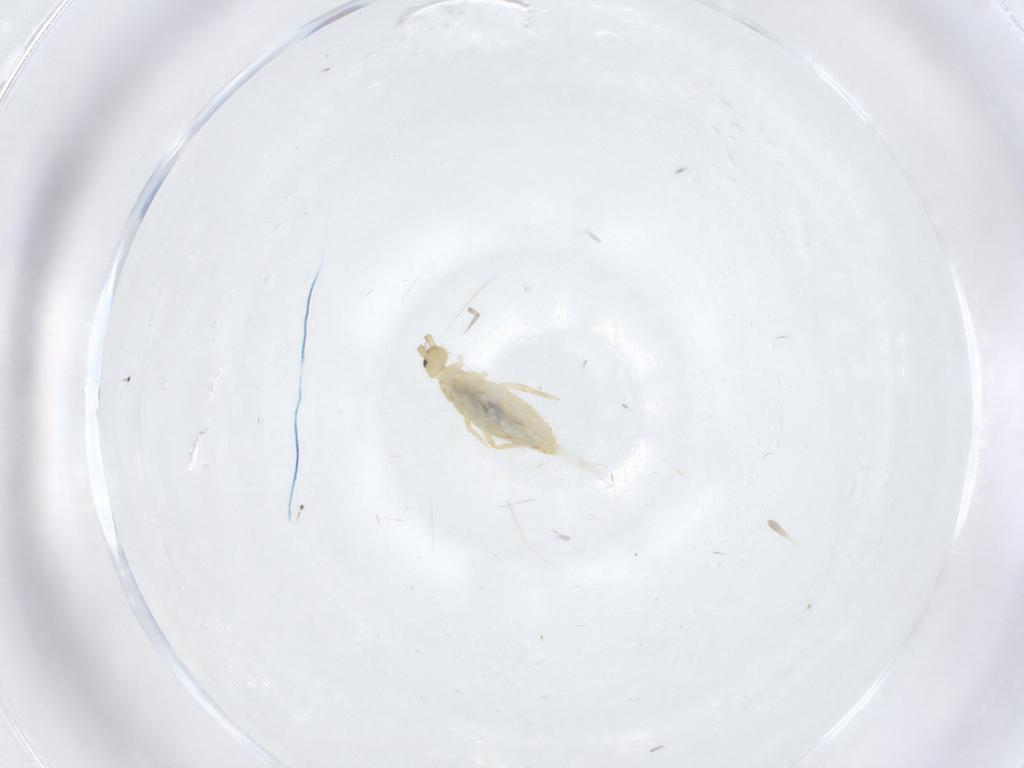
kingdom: Animalia
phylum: Arthropoda
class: Collembola
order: Entomobryomorpha
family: Entomobryidae
